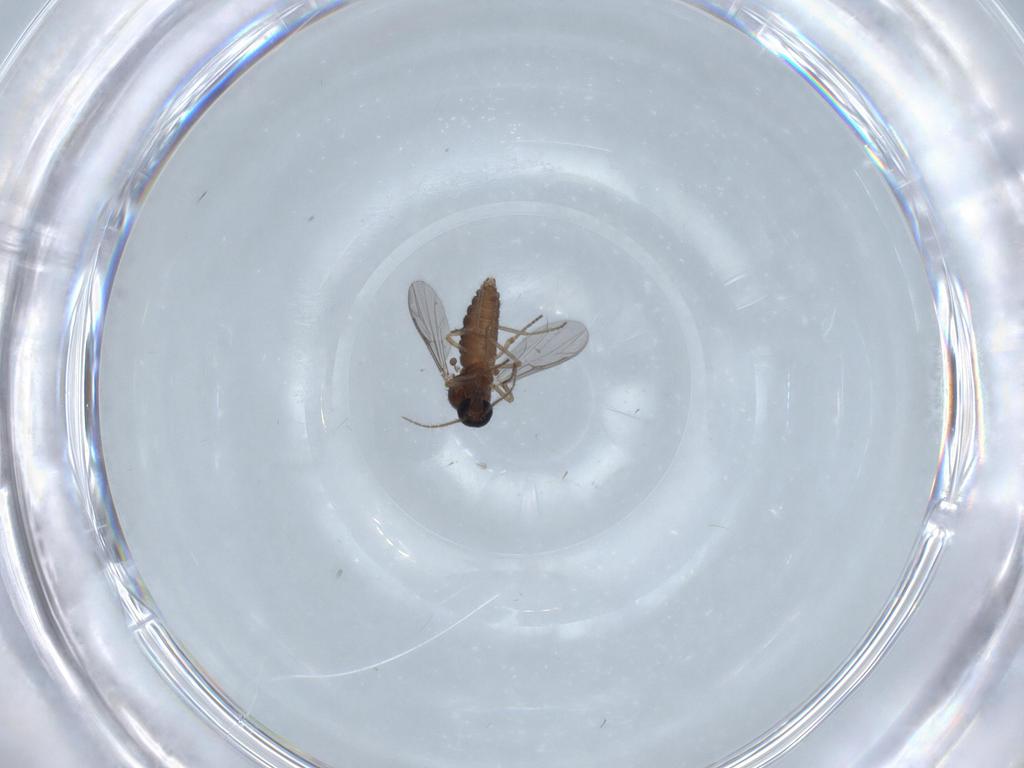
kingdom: Animalia
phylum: Arthropoda
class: Insecta
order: Diptera
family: Ceratopogonidae
